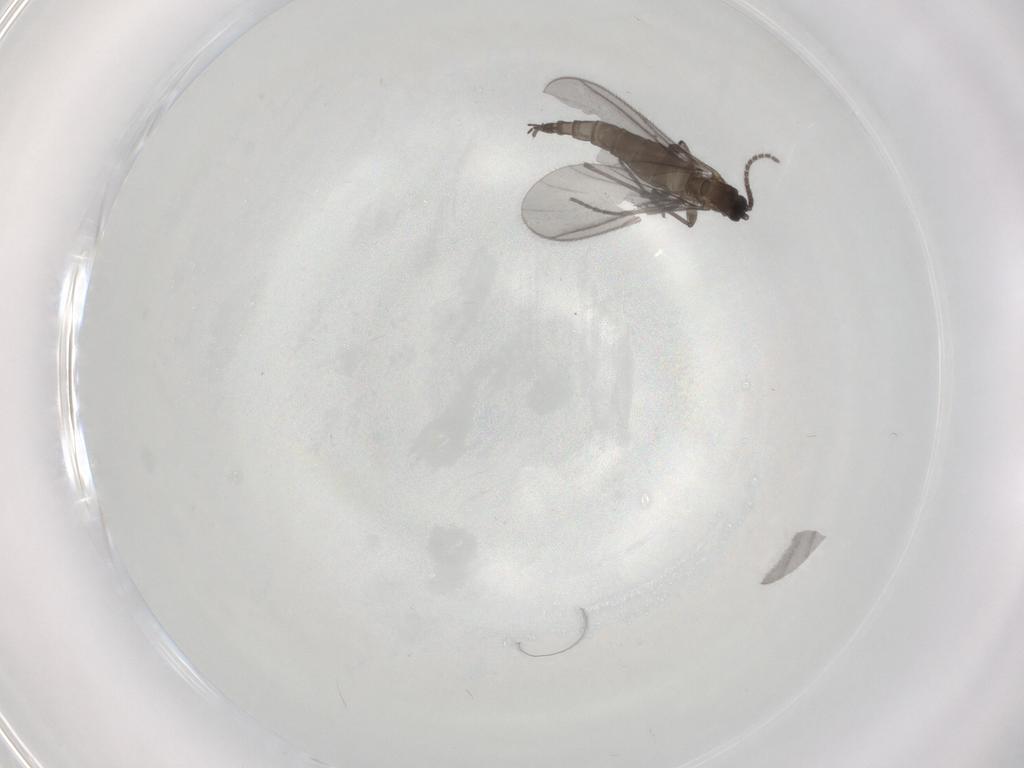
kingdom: Animalia
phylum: Arthropoda
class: Insecta
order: Diptera
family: Sciaridae
